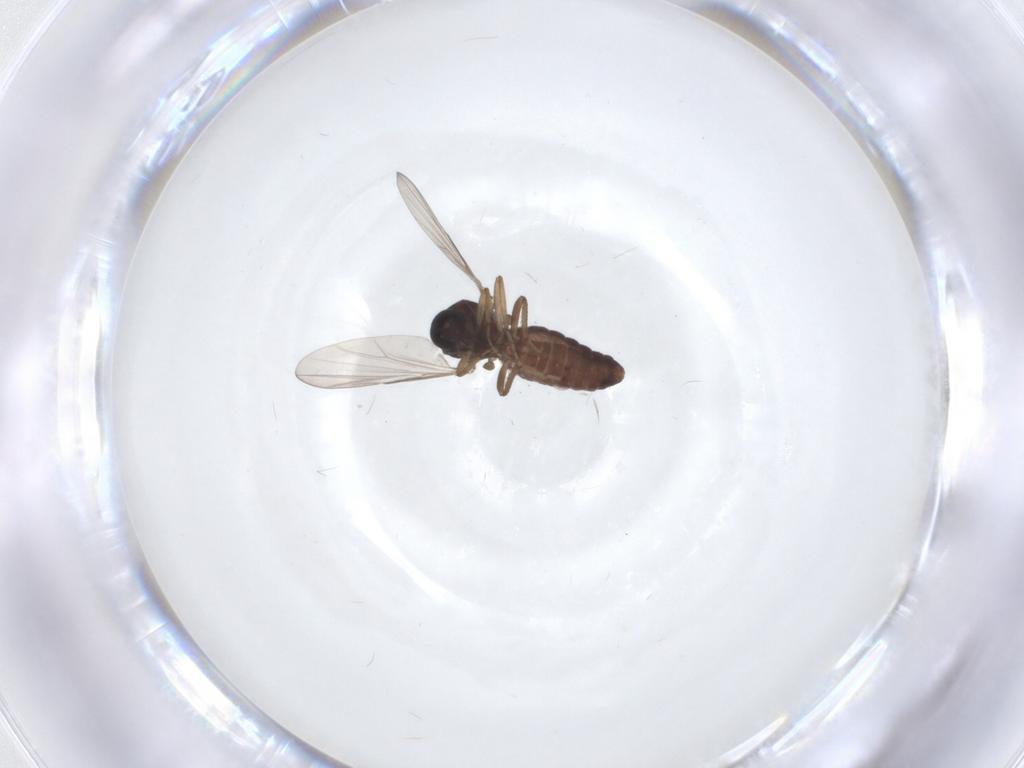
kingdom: Animalia
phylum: Arthropoda
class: Insecta
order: Diptera
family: Ceratopogonidae
